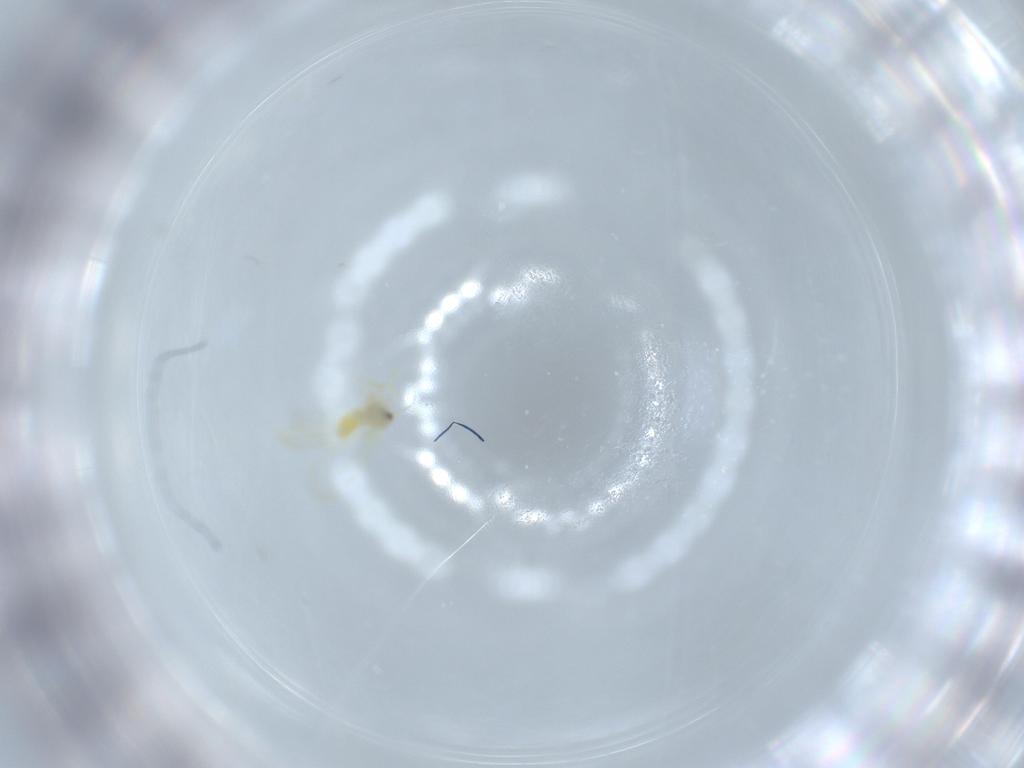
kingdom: Animalia
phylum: Arthropoda
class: Insecta
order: Hemiptera
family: Aleyrodidae
